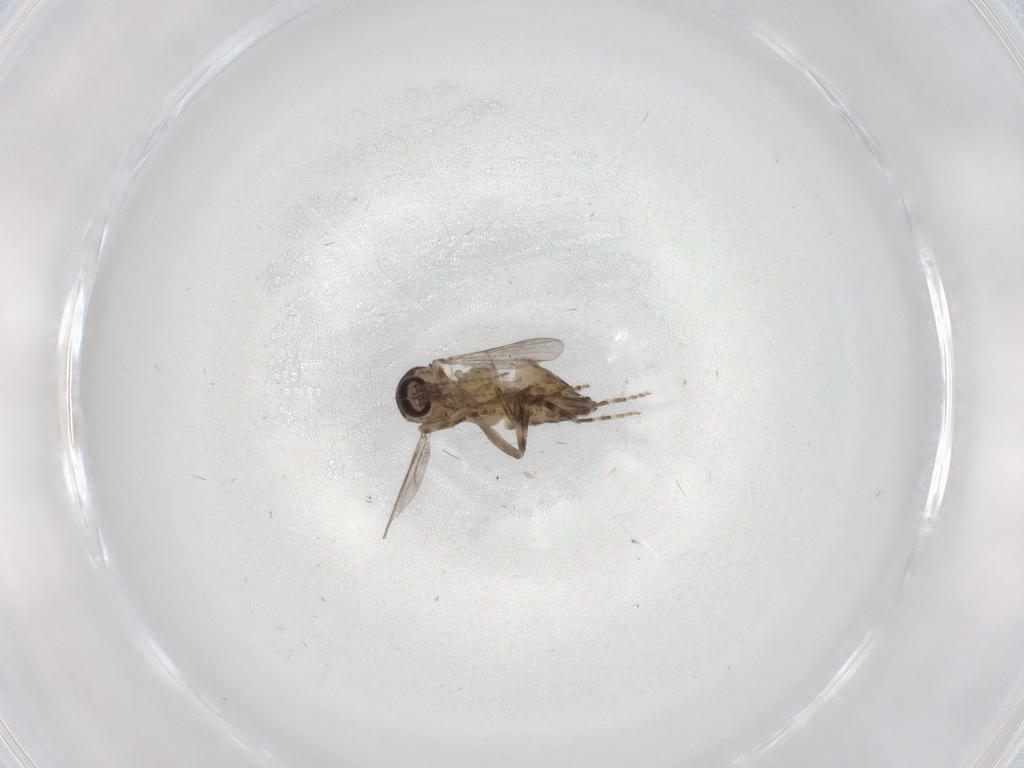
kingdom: Animalia
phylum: Arthropoda
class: Insecta
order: Diptera
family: Ceratopogonidae
